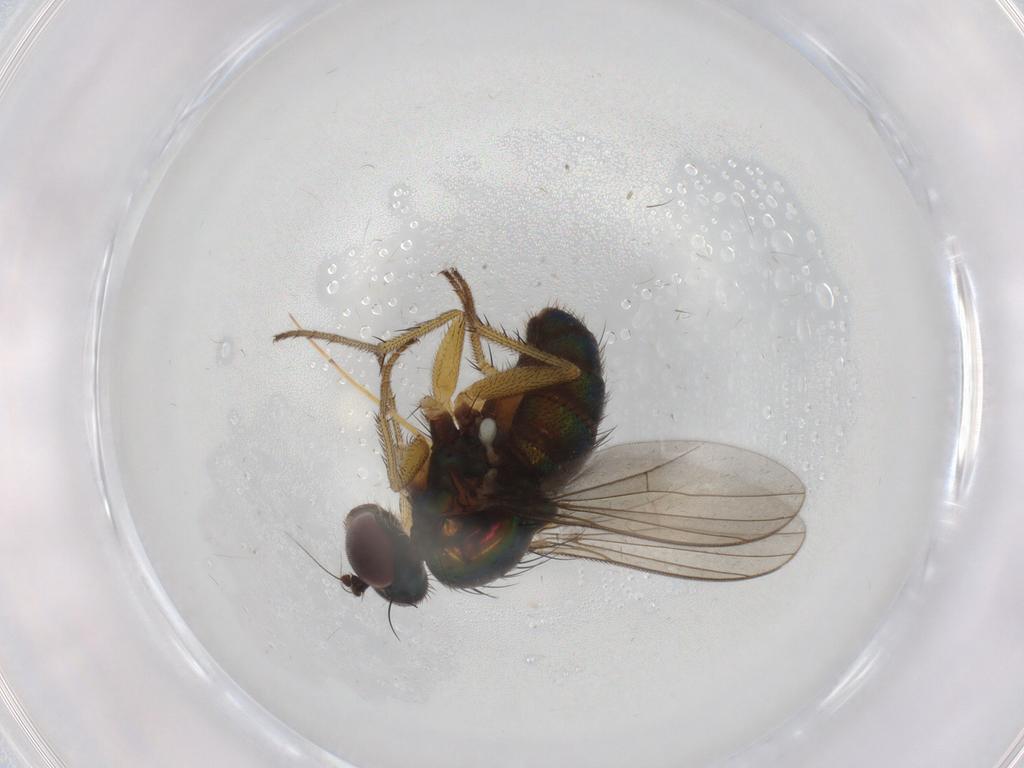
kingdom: Animalia
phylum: Arthropoda
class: Insecta
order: Diptera
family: Dolichopodidae
